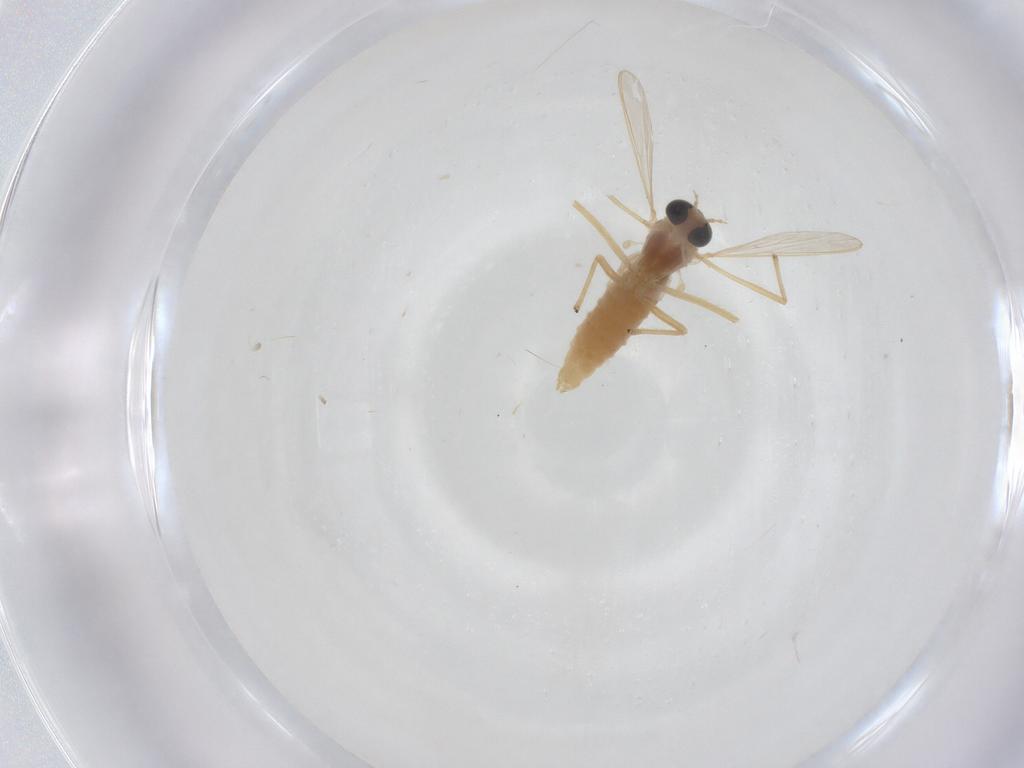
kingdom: Animalia
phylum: Arthropoda
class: Insecta
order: Diptera
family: Chironomidae
